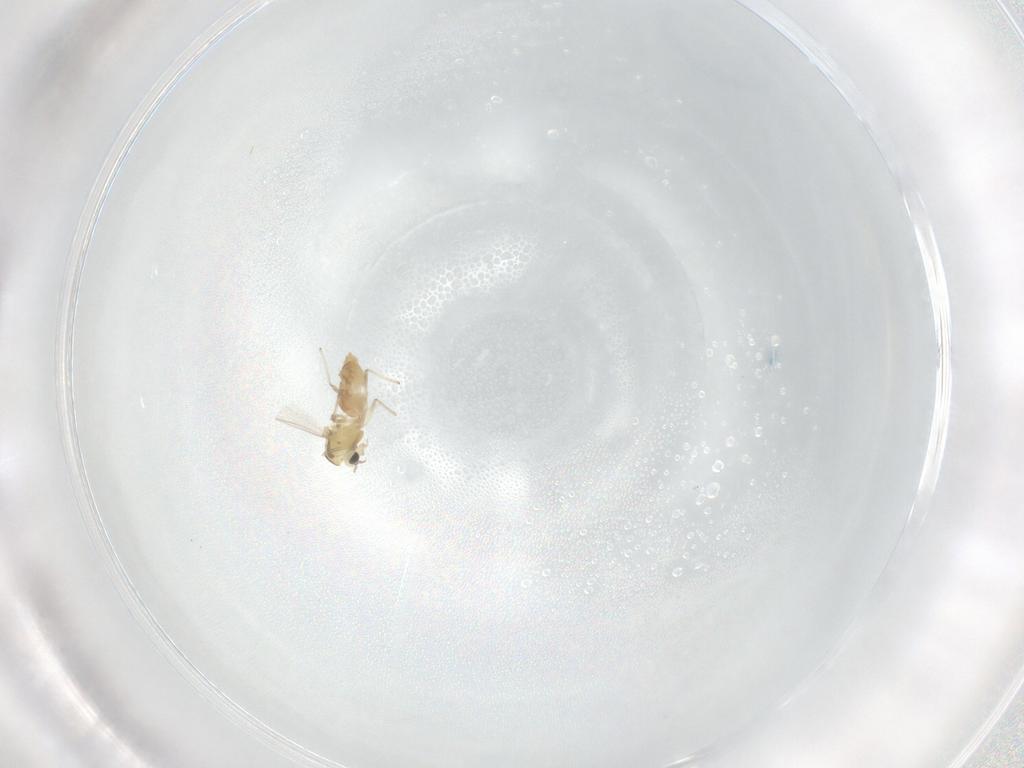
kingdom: Animalia
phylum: Arthropoda
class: Insecta
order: Diptera
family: Chironomidae
